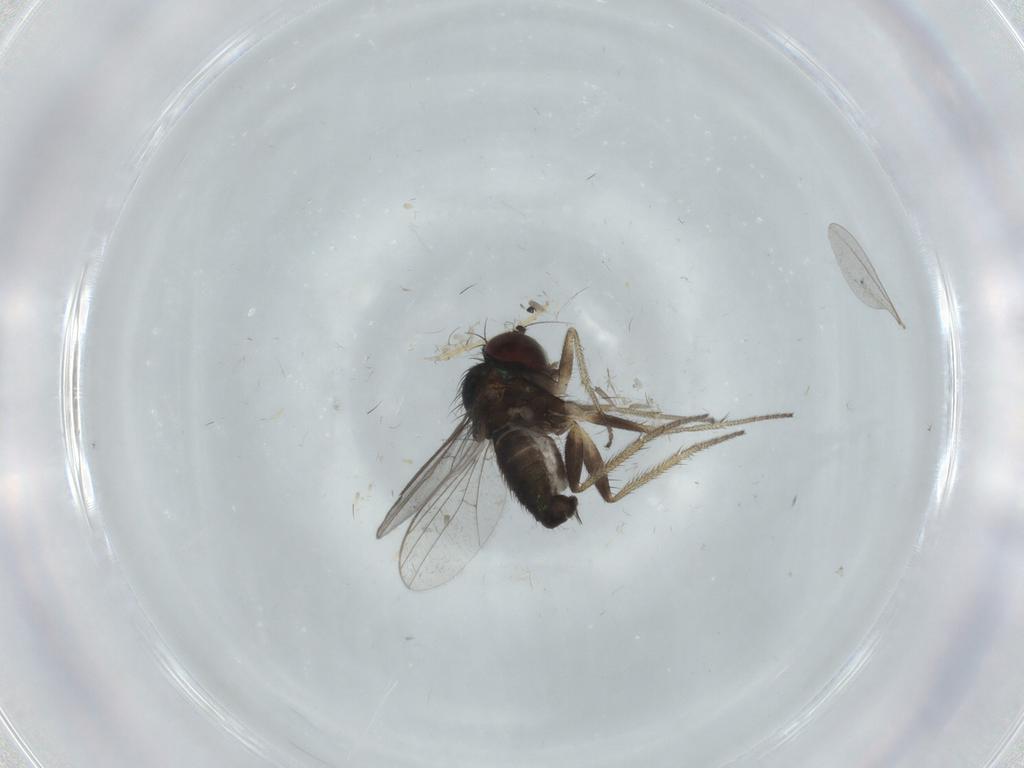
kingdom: Animalia
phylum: Arthropoda
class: Insecta
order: Diptera
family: Dolichopodidae
